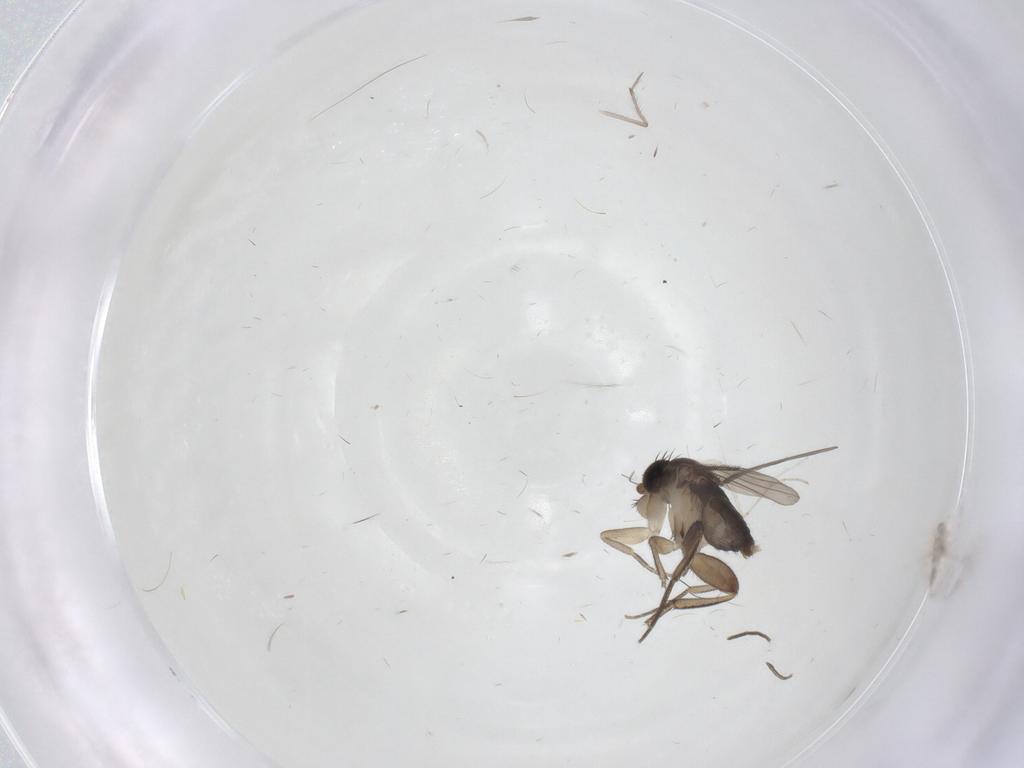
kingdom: Animalia
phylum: Arthropoda
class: Insecta
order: Diptera
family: Phoridae
